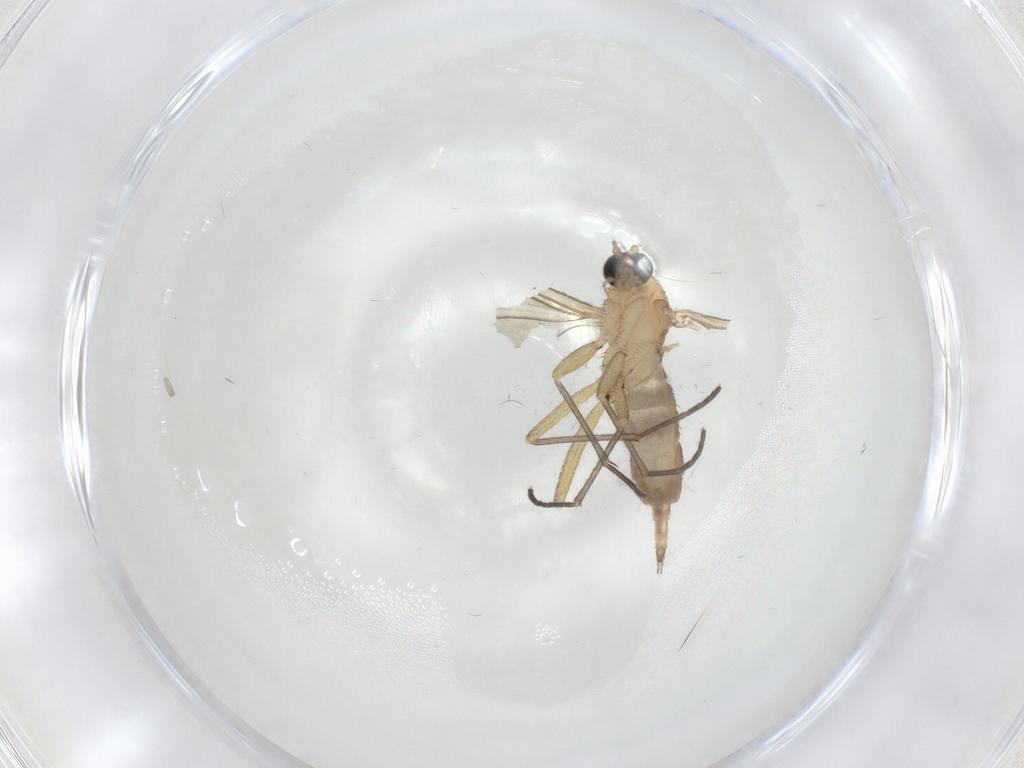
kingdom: Animalia
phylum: Arthropoda
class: Insecta
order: Diptera
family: Sciaridae
